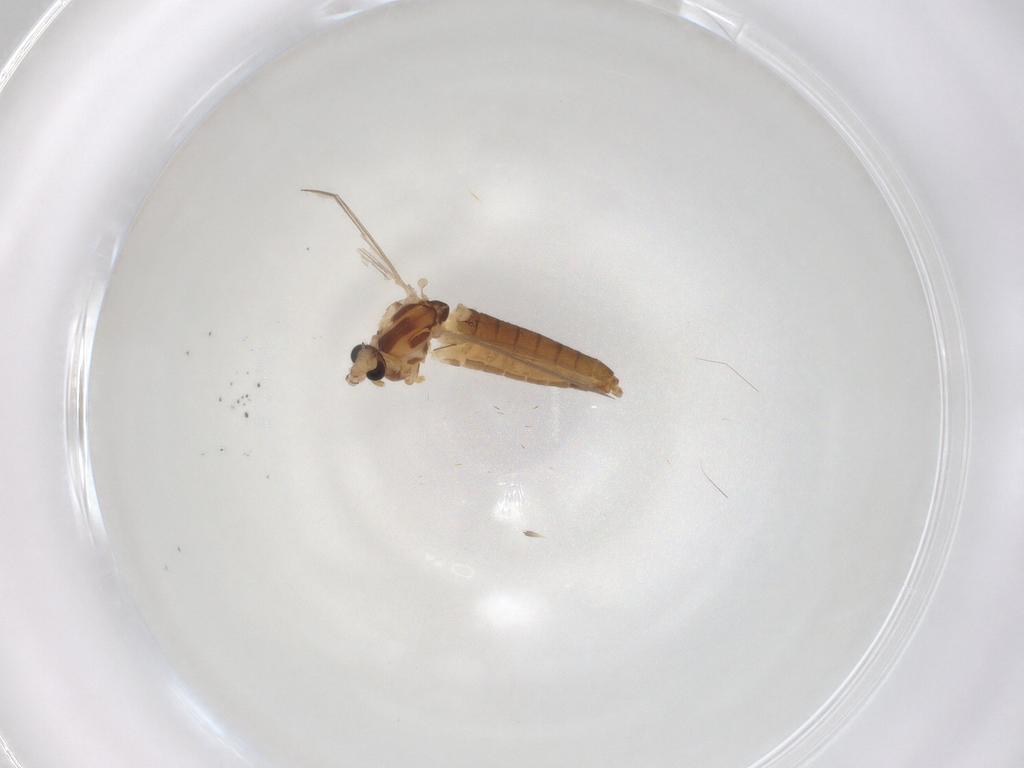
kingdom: Animalia
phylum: Arthropoda
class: Insecta
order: Diptera
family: Chironomidae
